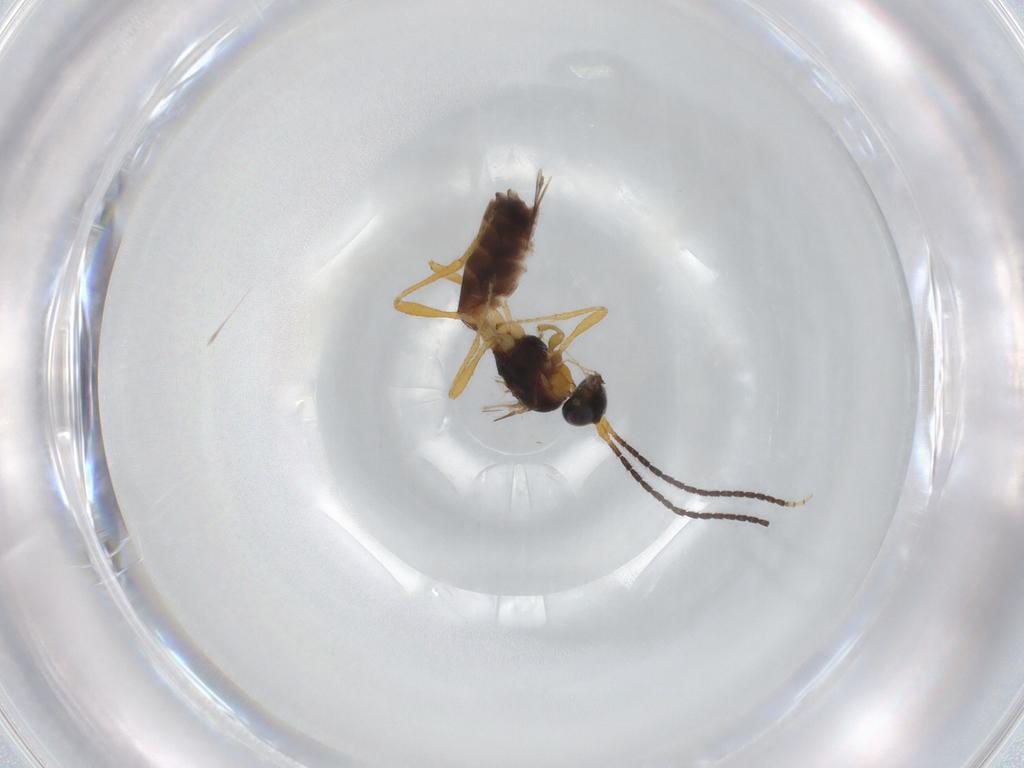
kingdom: Animalia
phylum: Arthropoda
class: Insecta
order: Hymenoptera
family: Braconidae
